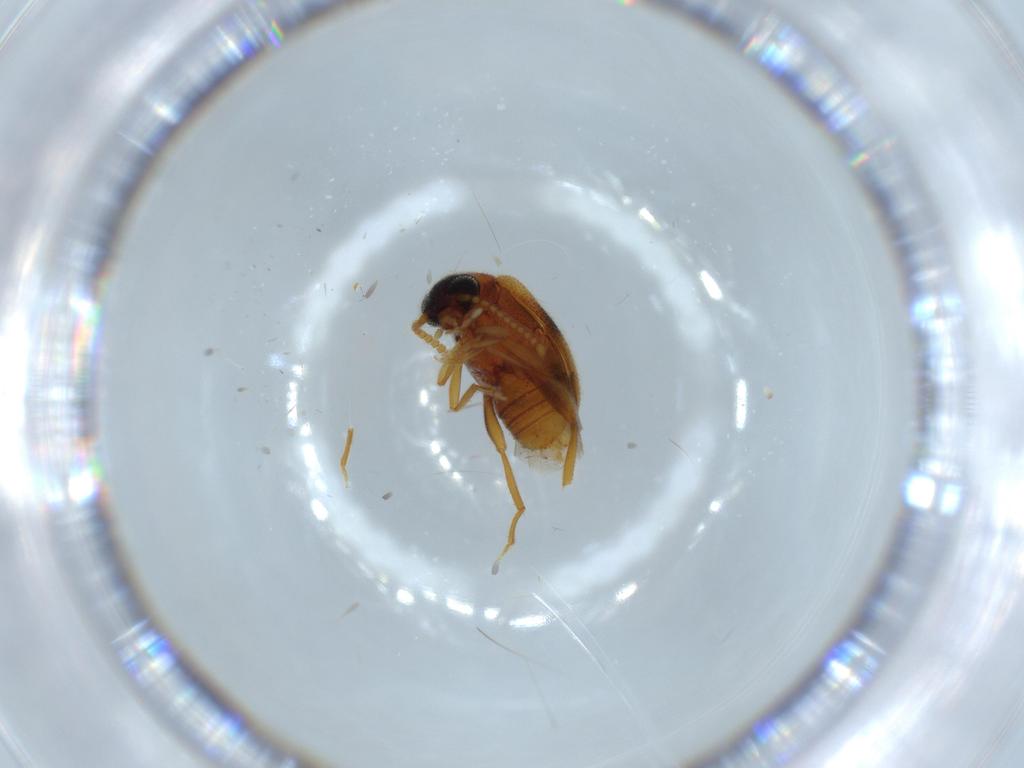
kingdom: Animalia
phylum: Arthropoda
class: Insecta
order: Coleoptera
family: Aderidae
